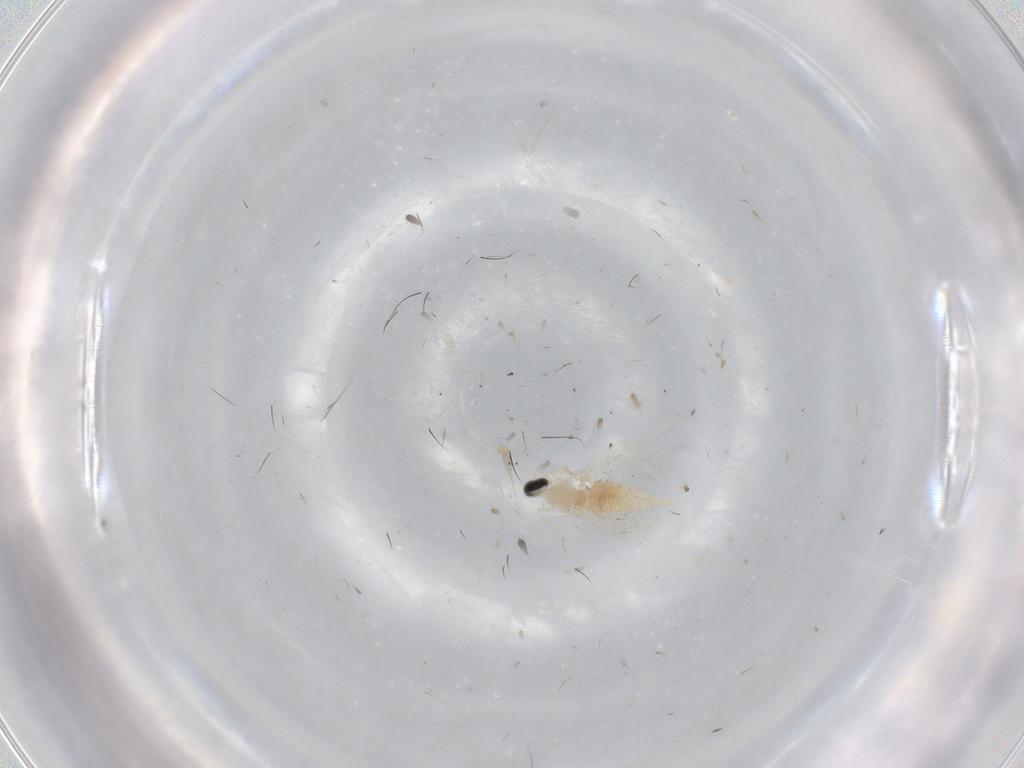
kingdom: Animalia
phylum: Arthropoda
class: Insecta
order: Diptera
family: Cecidomyiidae
